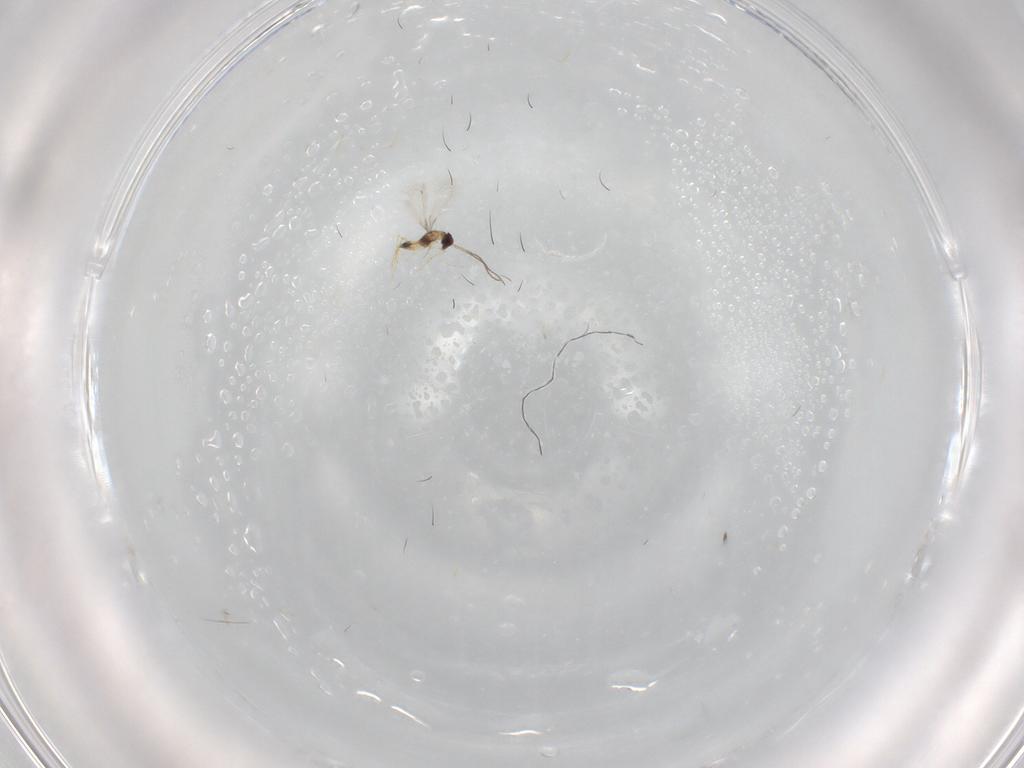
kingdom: Animalia
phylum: Arthropoda
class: Insecta
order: Hymenoptera
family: Mymaridae
